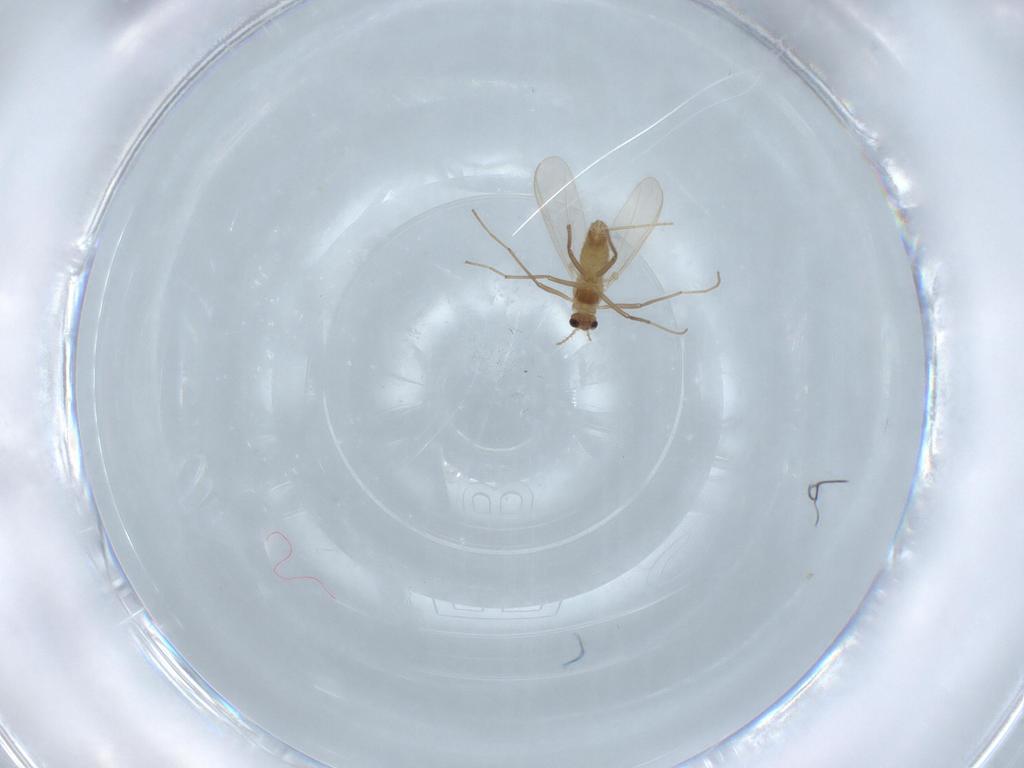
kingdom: Animalia
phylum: Arthropoda
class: Insecta
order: Diptera
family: Chironomidae
